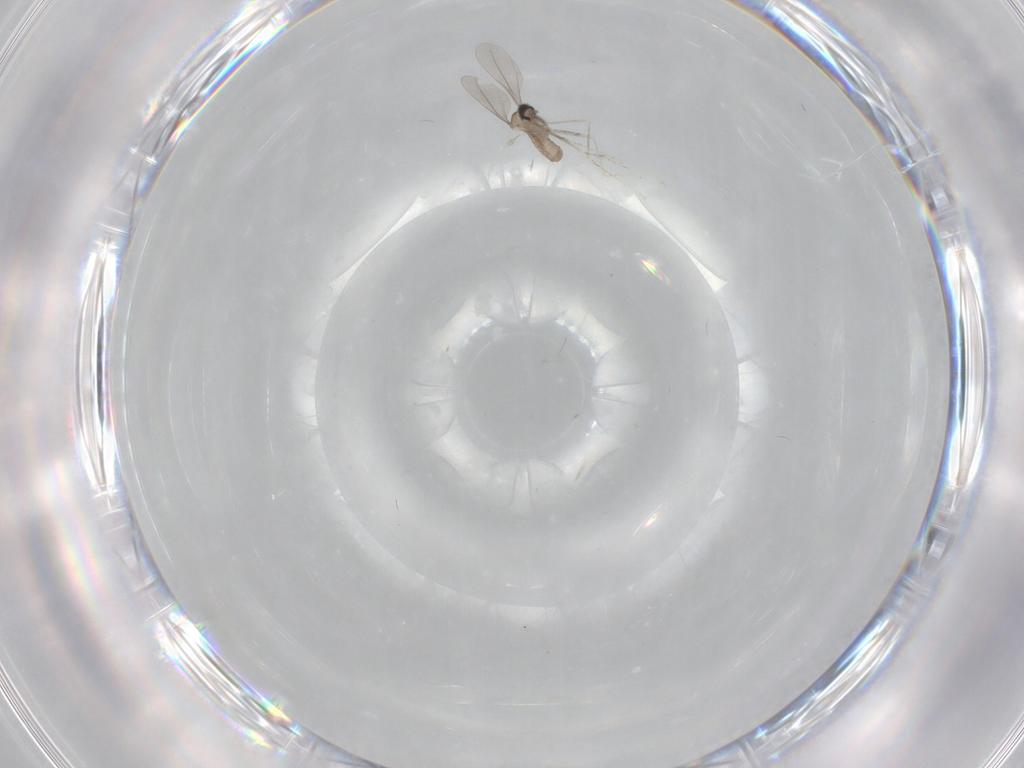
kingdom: Animalia
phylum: Arthropoda
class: Insecta
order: Diptera
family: Cecidomyiidae
